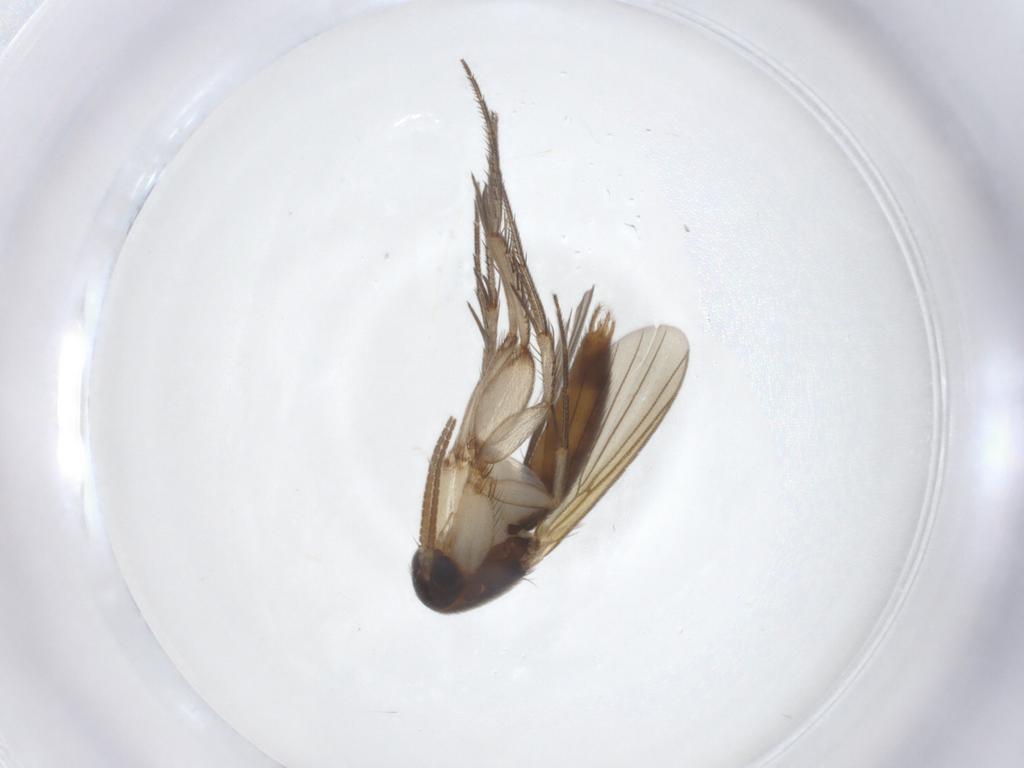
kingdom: Animalia
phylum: Arthropoda
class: Insecta
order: Diptera
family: Mycetophilidae
